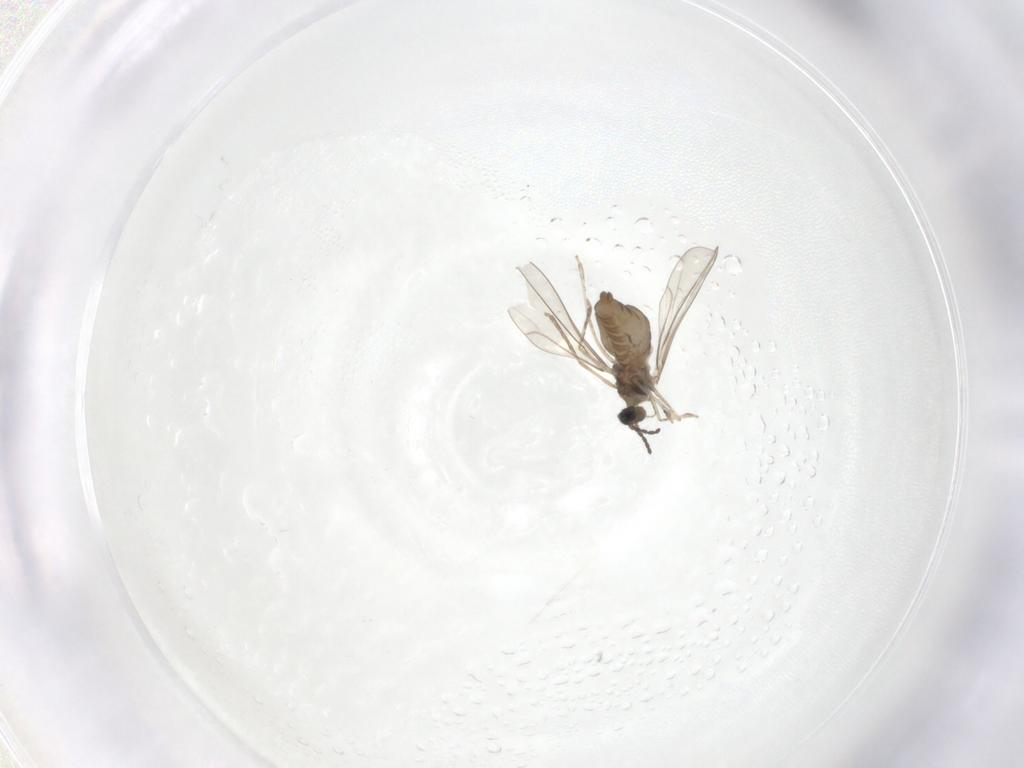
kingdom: Animalia
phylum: Arthropoda
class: Insecta
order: Diptera
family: Cecidomyiidae
